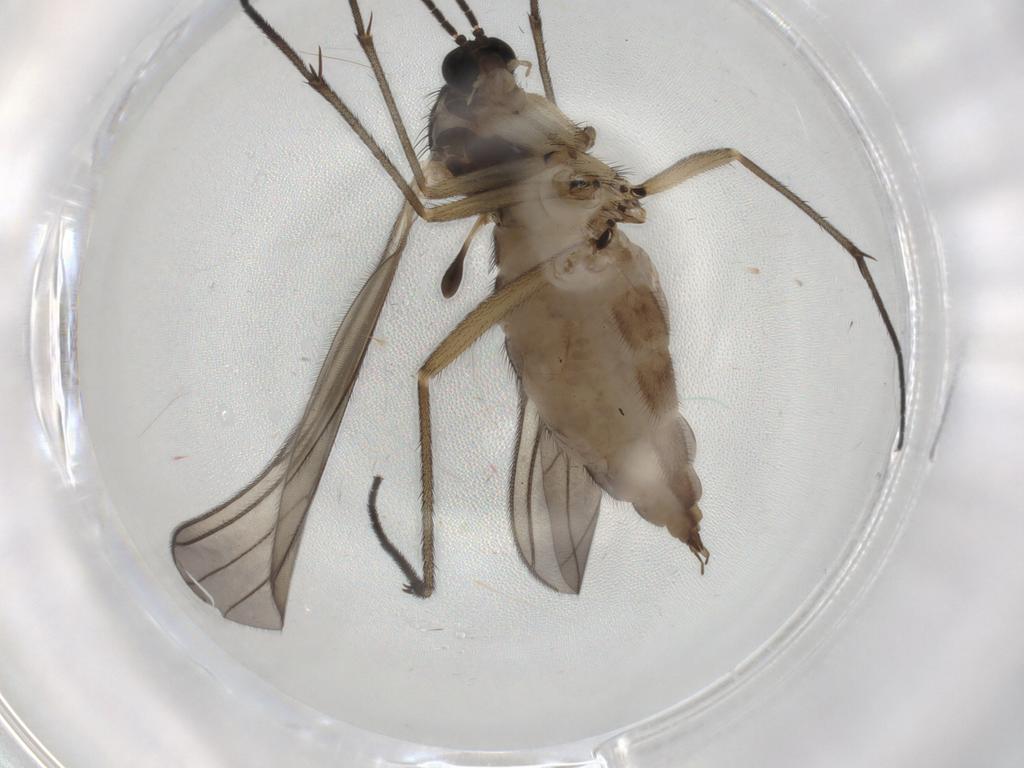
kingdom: Animalia
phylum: Arthropoda
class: Insecta
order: Diptera
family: Sciaridae
